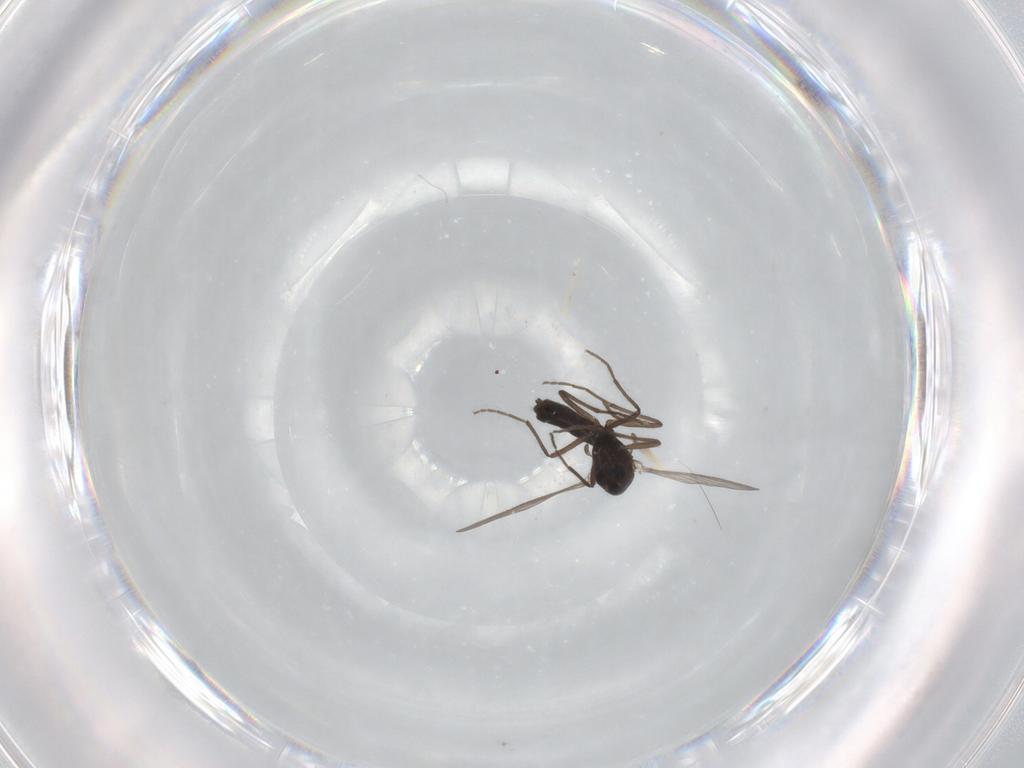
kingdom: Animalia
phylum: Arthropoda
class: Insecta
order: Diptera
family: Chironomidae
